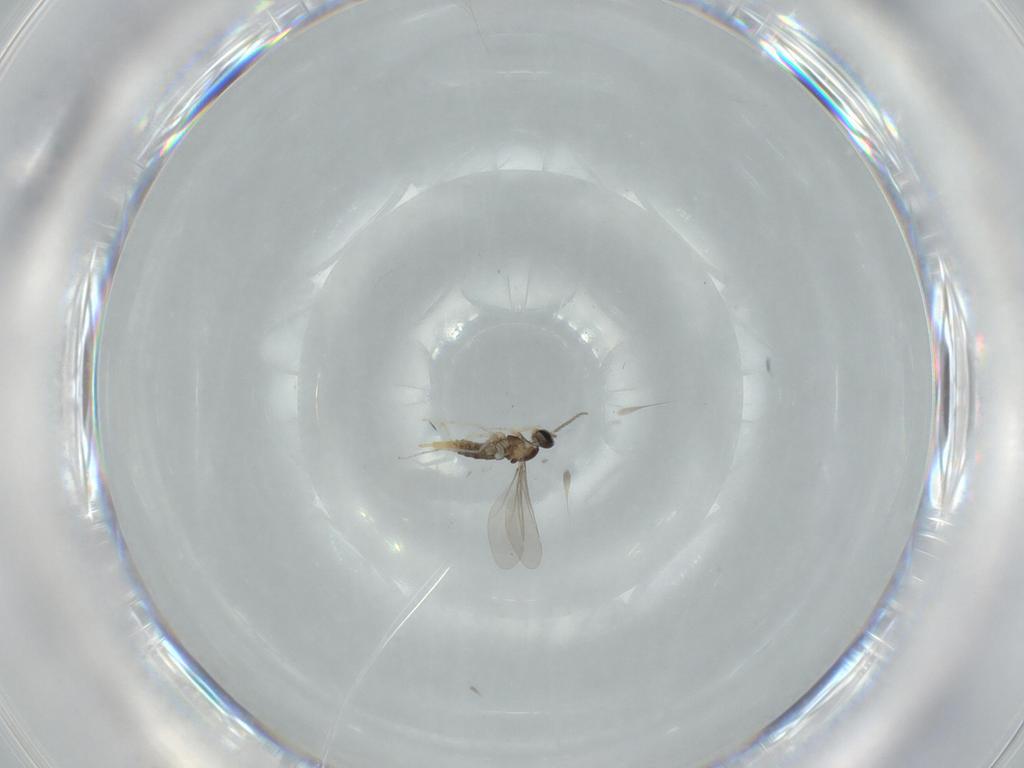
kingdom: Animalia
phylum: Arthropoda
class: Insecta
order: Diptera
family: Cecidomyiidae
